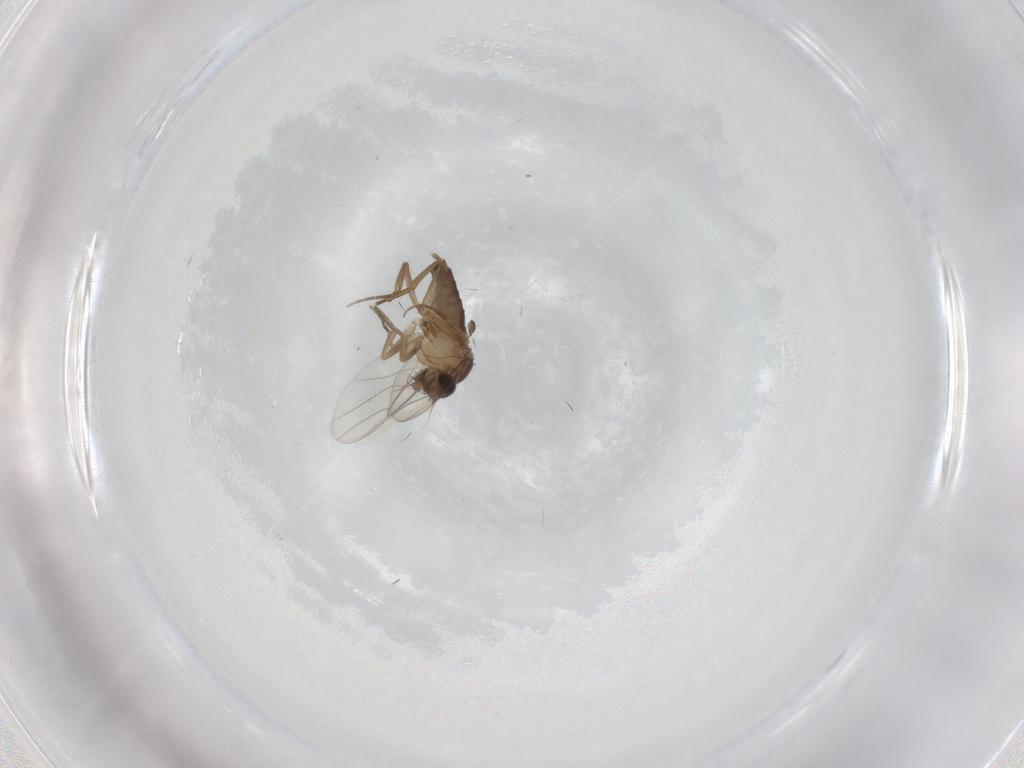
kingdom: Animalia
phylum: Arthropoda
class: Insecta
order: Diptera
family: Phoridae
